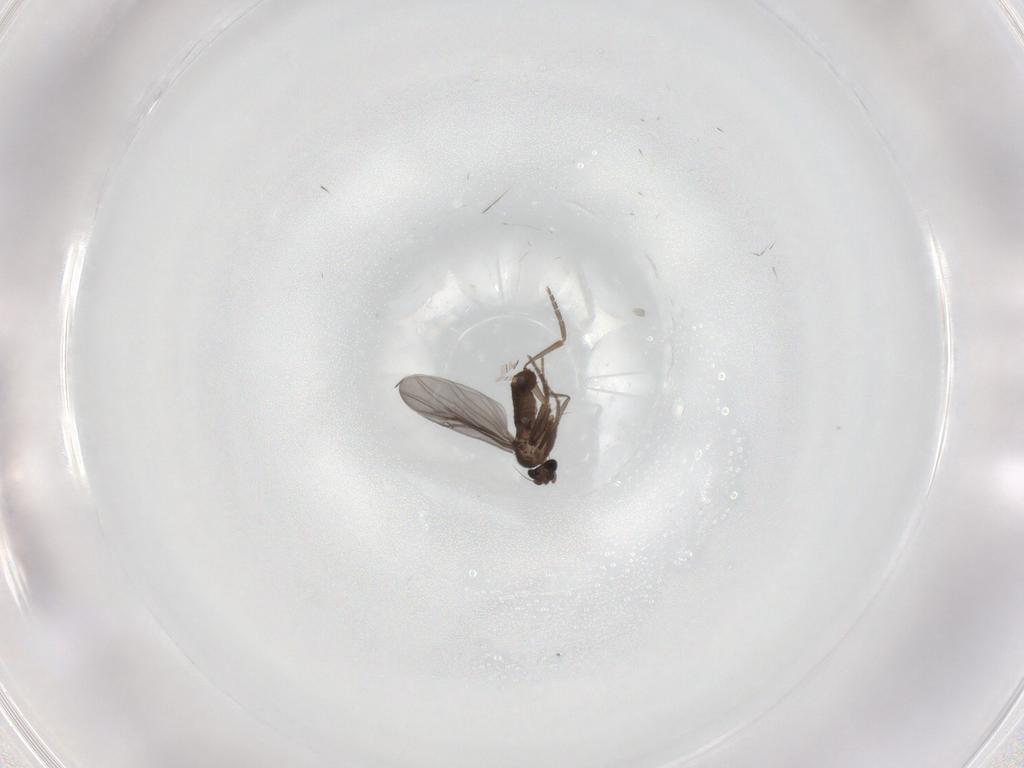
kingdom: Animalia
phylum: Arthropoda
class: Insecta
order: Diptera
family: Phoridae
